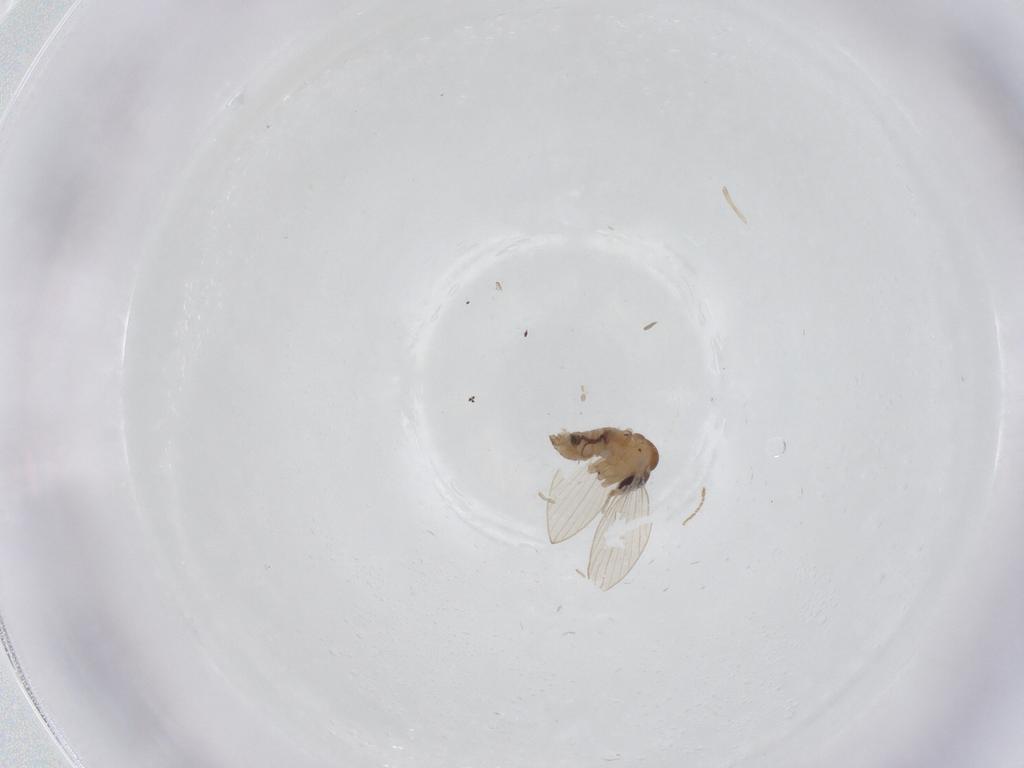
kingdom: Animalia
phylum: Arthropoda
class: Insecta
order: Diptera
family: Psychodidae
